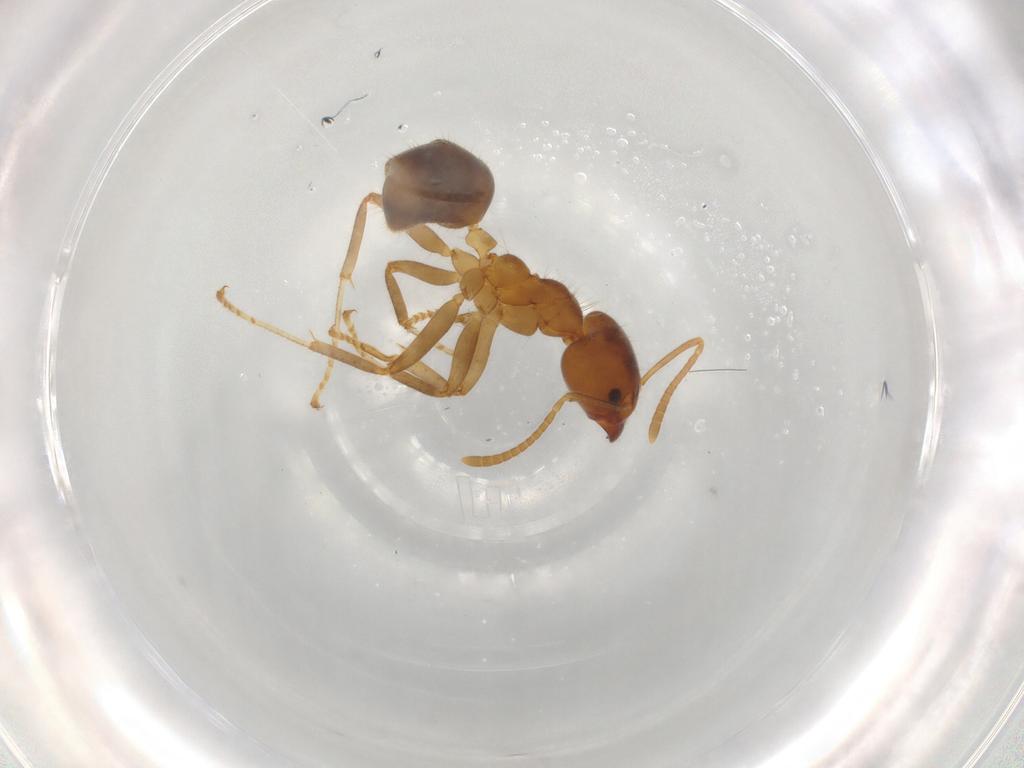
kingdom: Animalia
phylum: Arthropoda
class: Insecta
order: Hymenoptera
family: Formicidae
